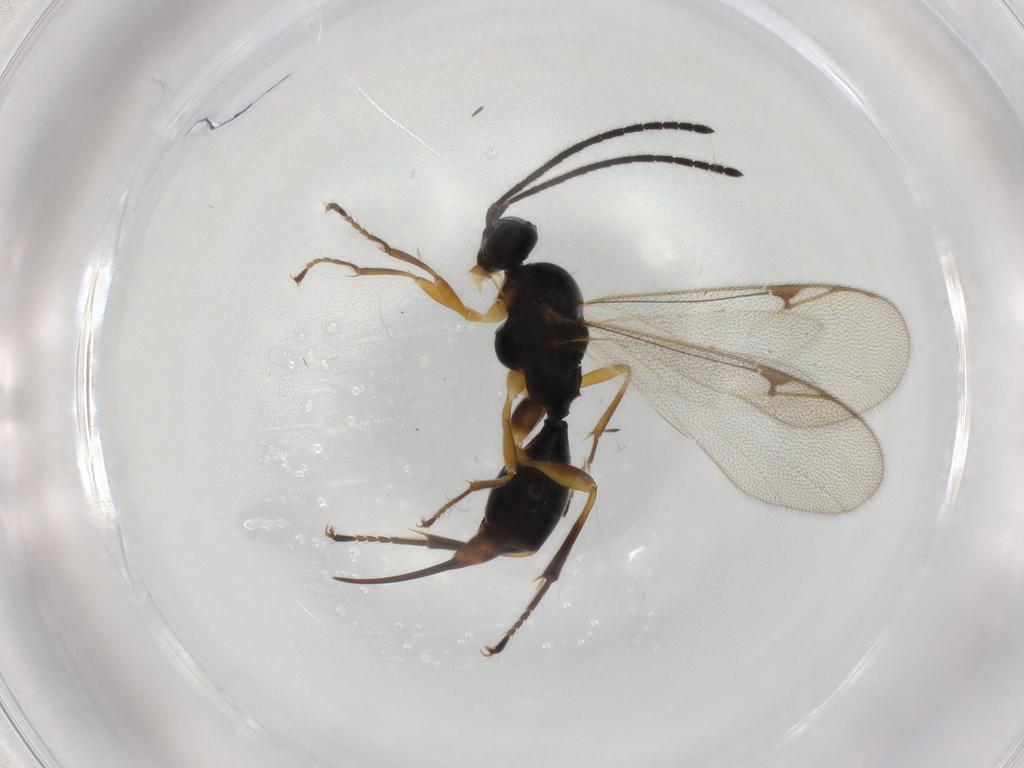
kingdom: Animalia
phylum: Arthropoda
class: Insecta
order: Hymenoptera
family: Proctotrupidae
